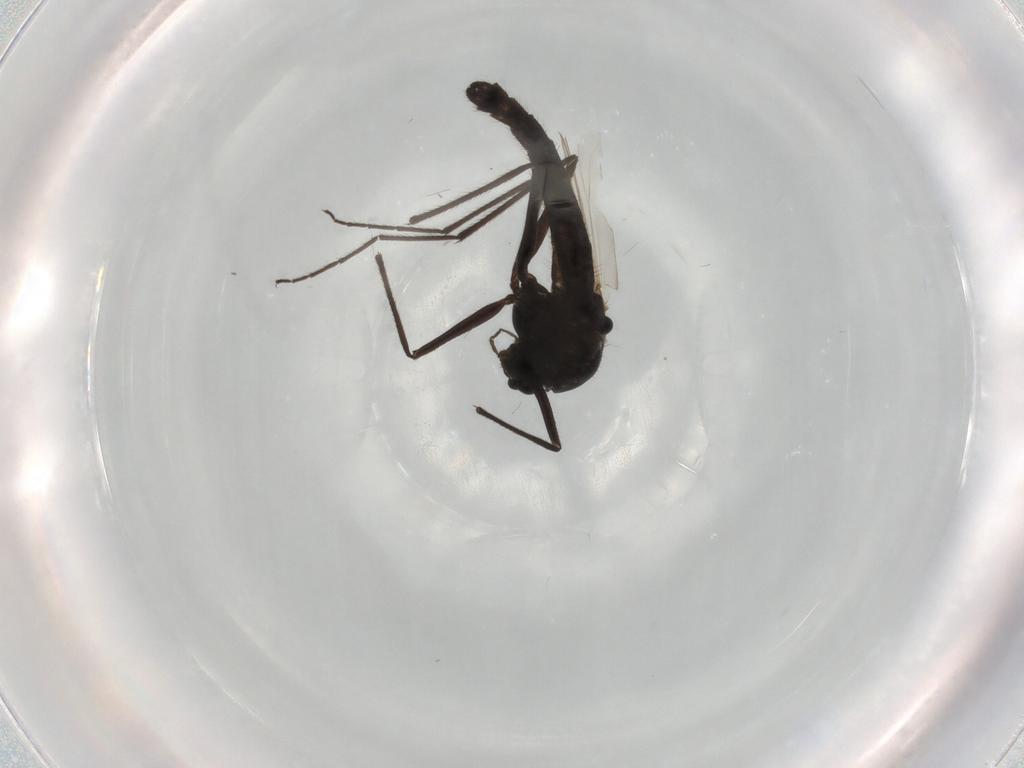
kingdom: Animalia
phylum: Arthropoda
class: Insecta
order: Diptera
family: Chironomidae
